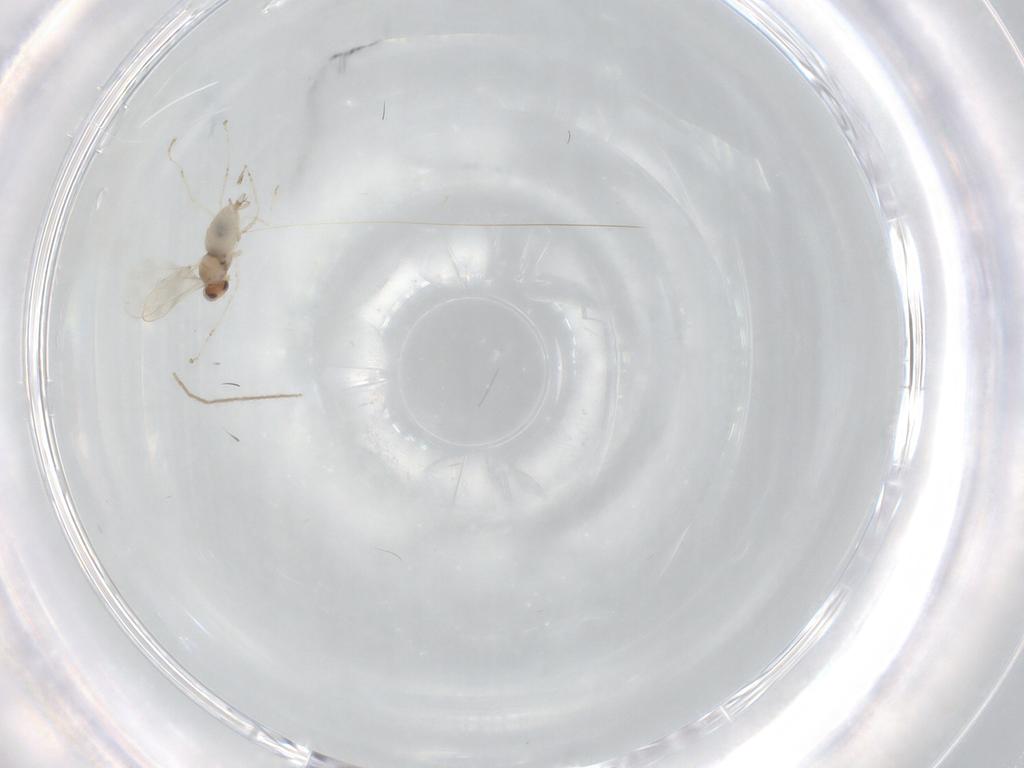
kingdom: Animalia
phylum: Arthropoda
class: Insecta
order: Diptera
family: Cecidomyiidae
